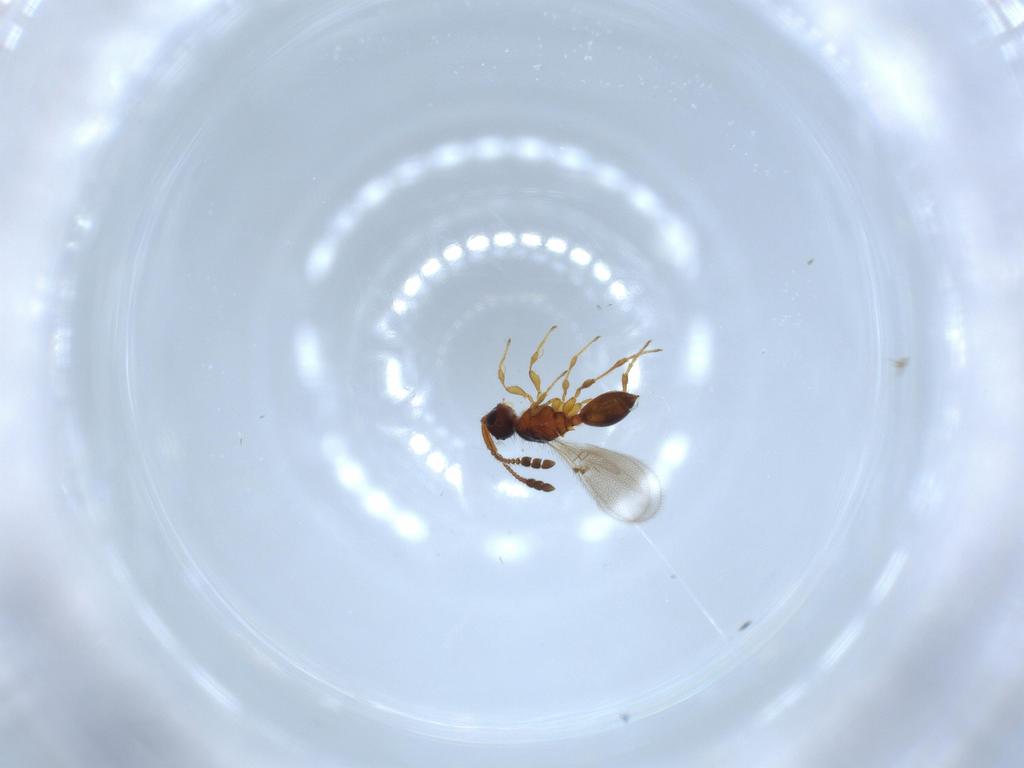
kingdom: Animalia
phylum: Arthropoda
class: Insecta
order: Hymenoptera
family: Diapriidae
